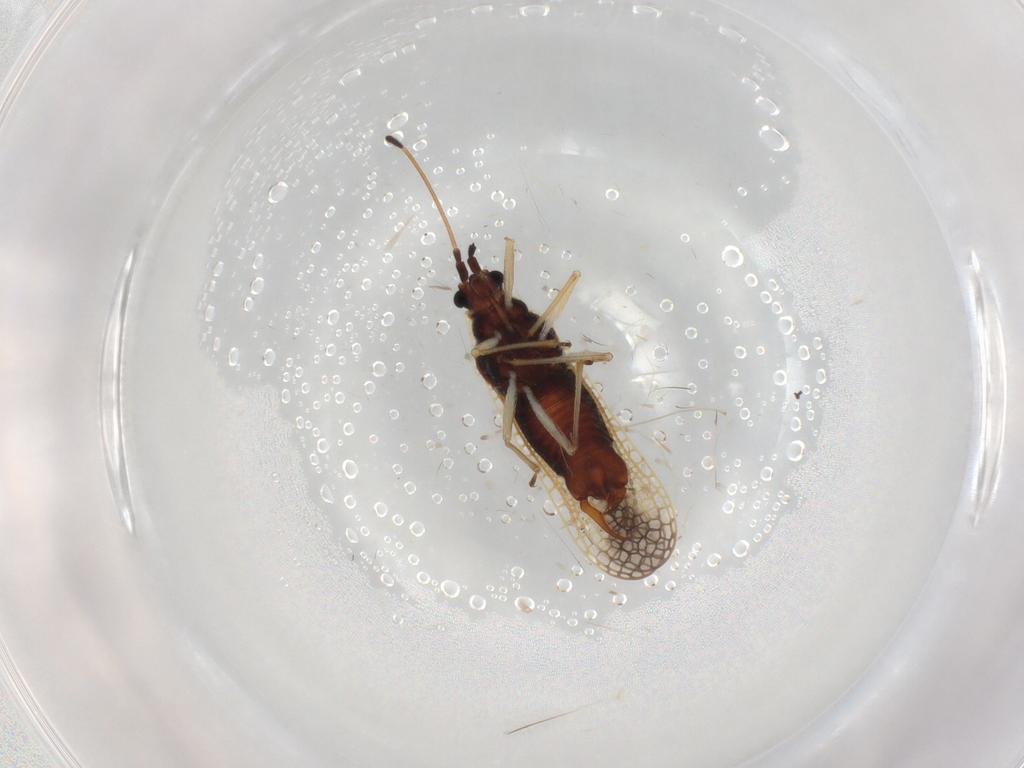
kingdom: Animalia
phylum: Arthropoda
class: Insecta
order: Hemiptera
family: Tingidae
